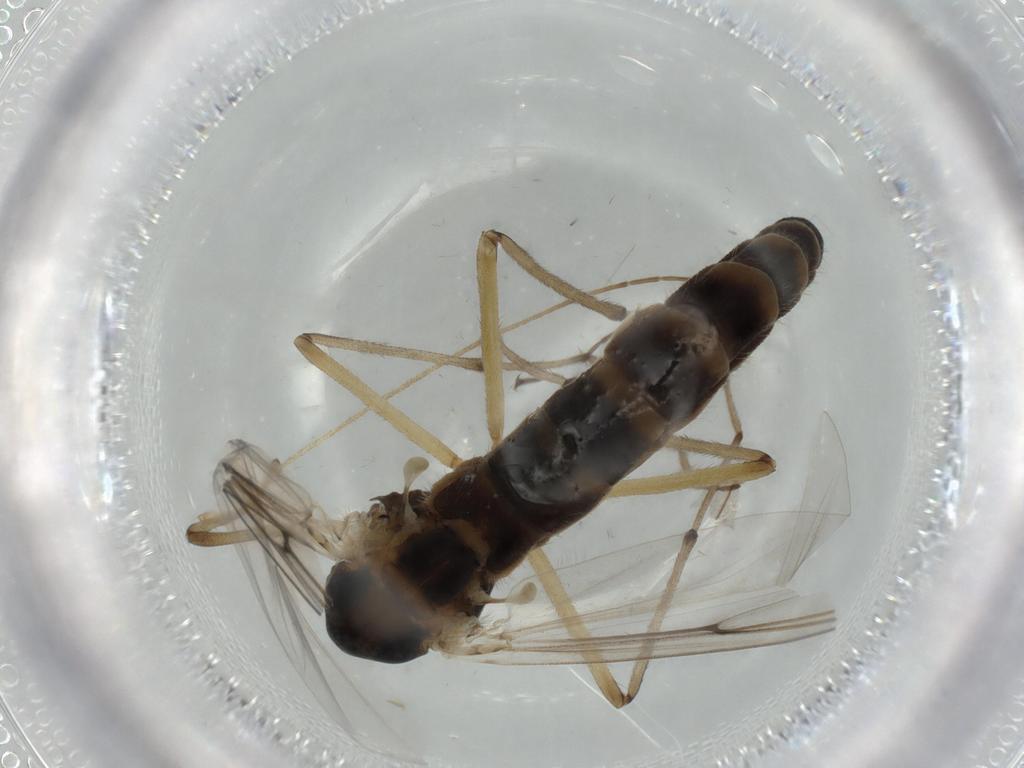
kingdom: Animalia
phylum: Arthropoda
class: Insecta
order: Diptera
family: Chironomidae
